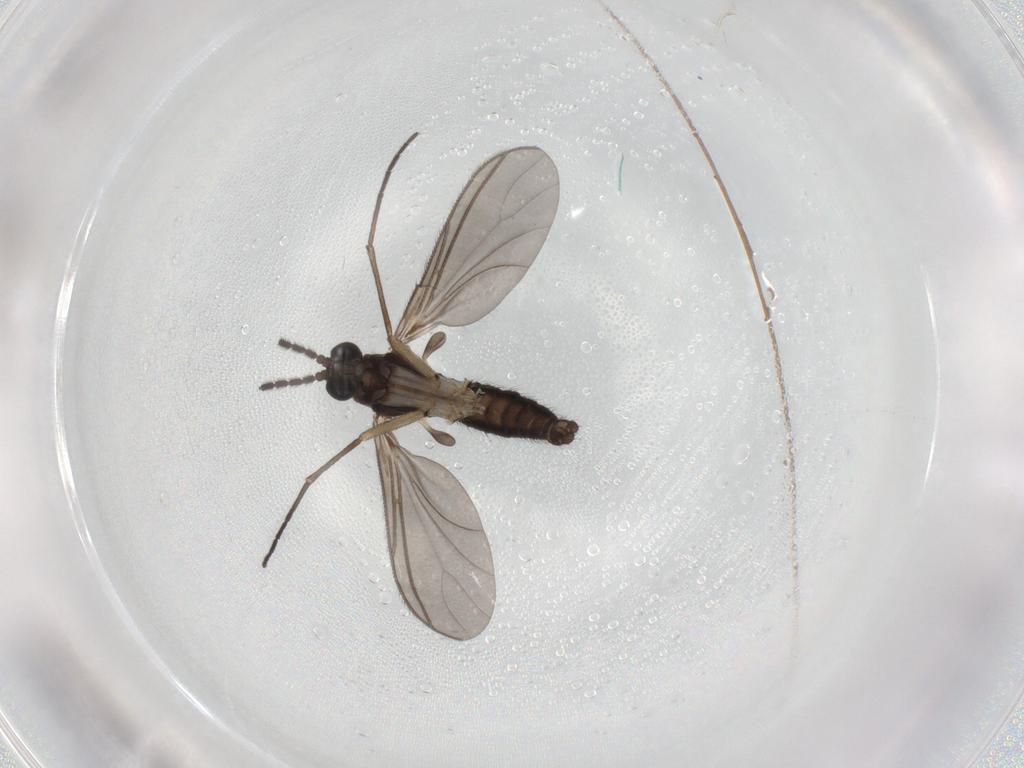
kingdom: Animalia
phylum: Arthropoda
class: Insecta
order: Diptera
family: Sciaridae
